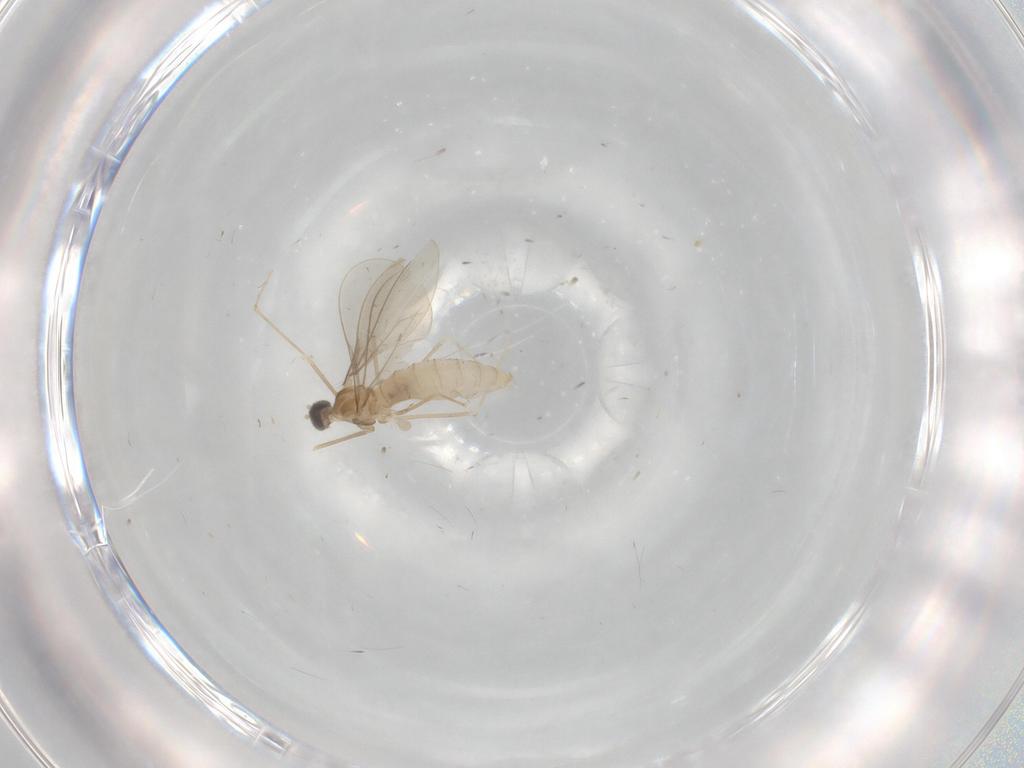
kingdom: Animalia
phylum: Arthropoda
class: Insecta
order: Diptera
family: Cecidomyiidae
